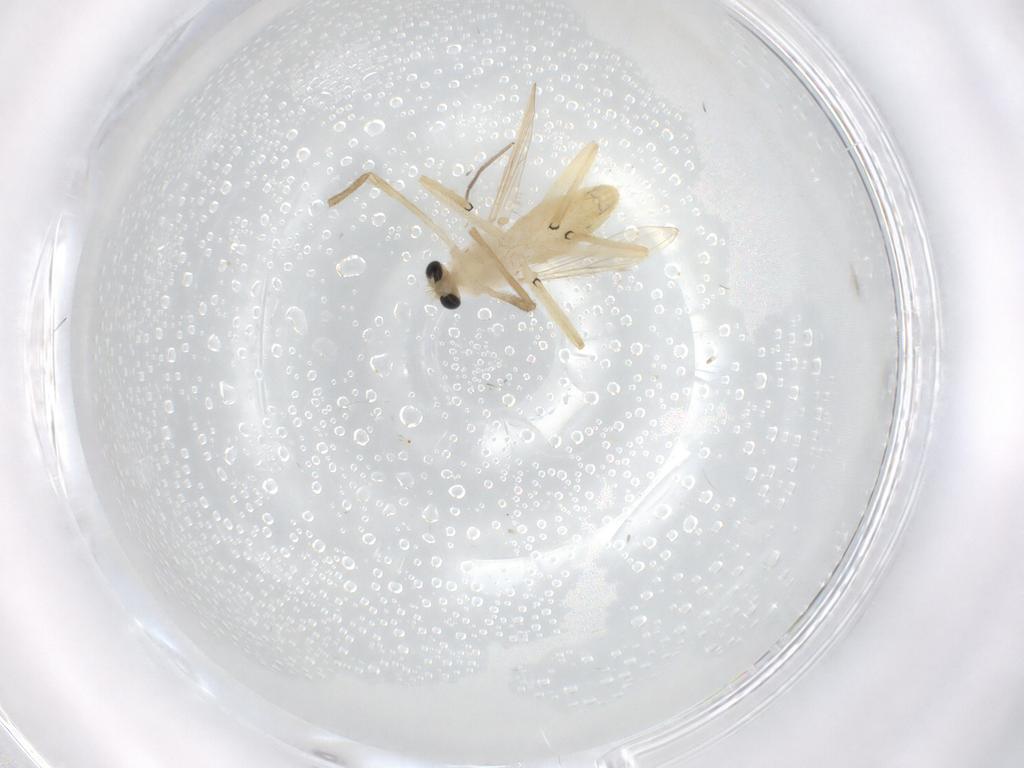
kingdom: Animalia
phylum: Arthropoda
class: Insecta
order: Diptera
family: Chironomidae
